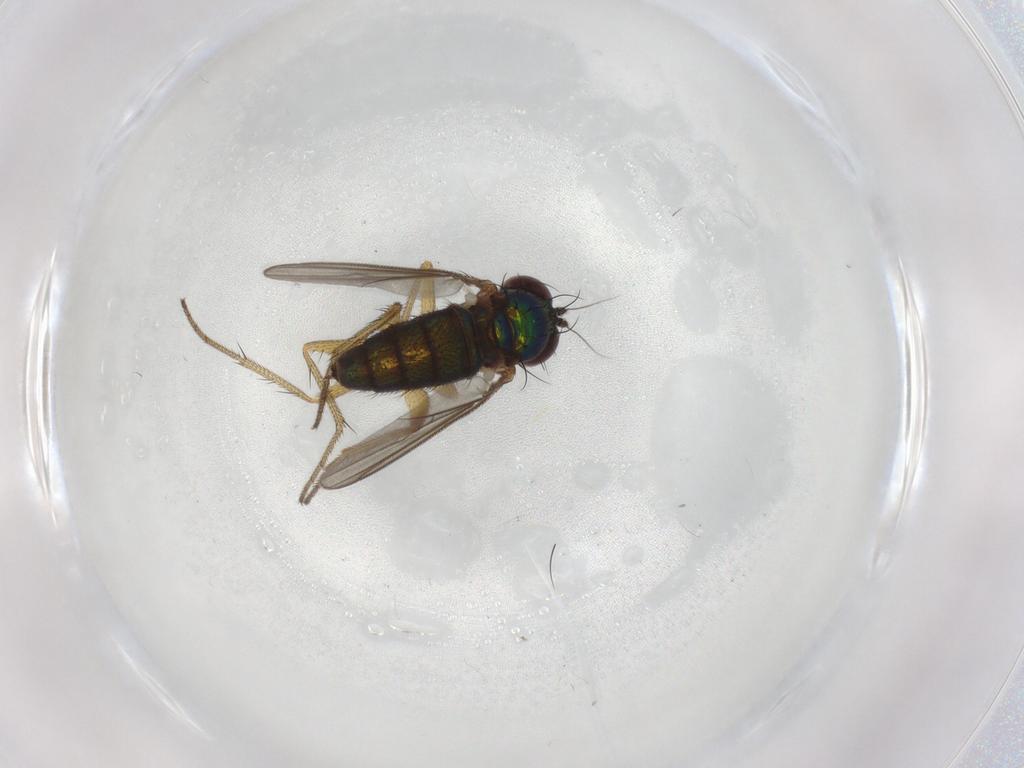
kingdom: Animalia
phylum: Arthropoda
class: Insecta
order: Diptera
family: Dolichopodidae
